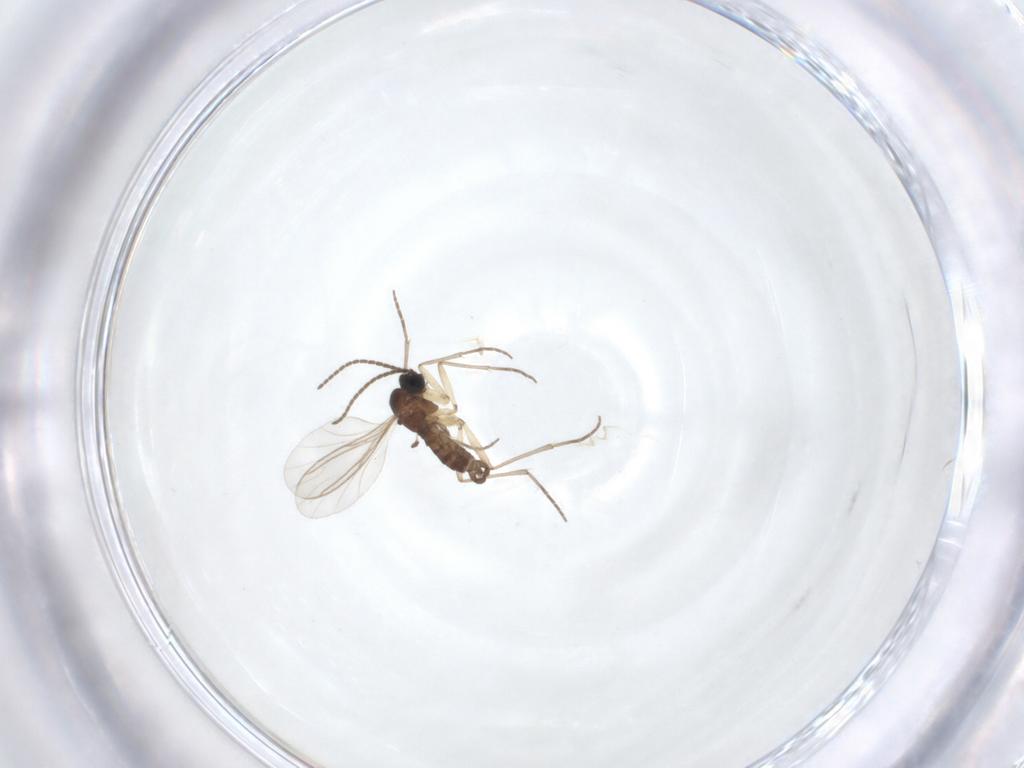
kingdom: Animalia
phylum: Arthropoda
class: Insecta
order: Diptera
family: Sciaridae
